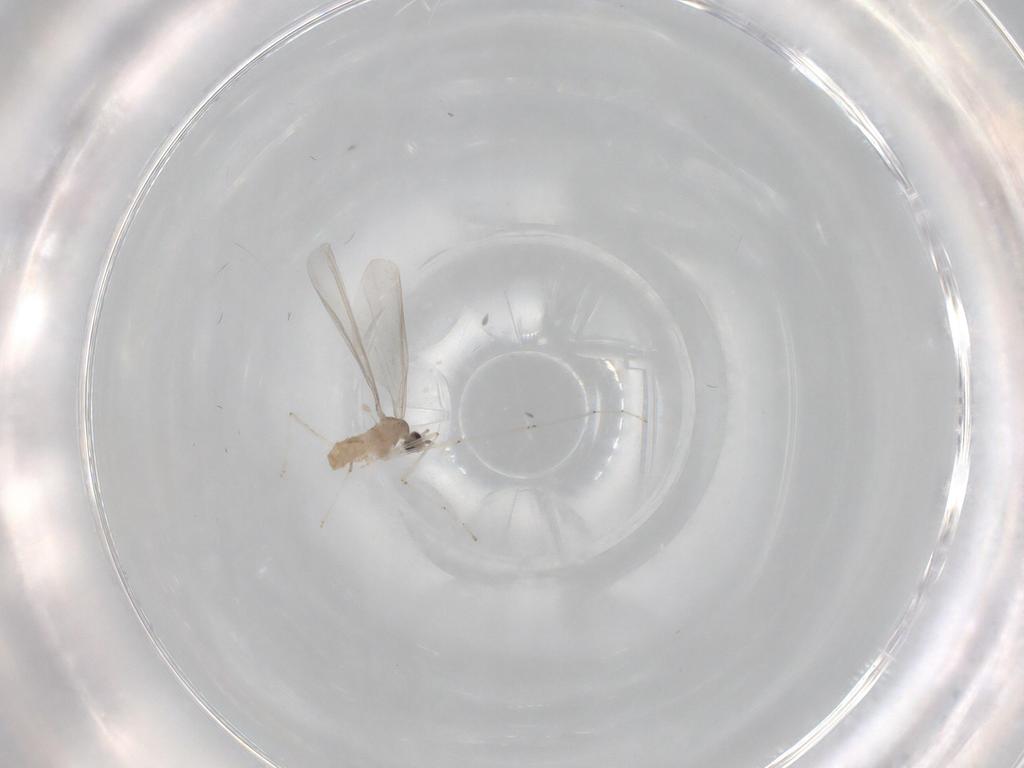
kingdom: Animalia
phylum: Arthropoda
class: Insecta
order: Diptera
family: Cecidomyiidae
